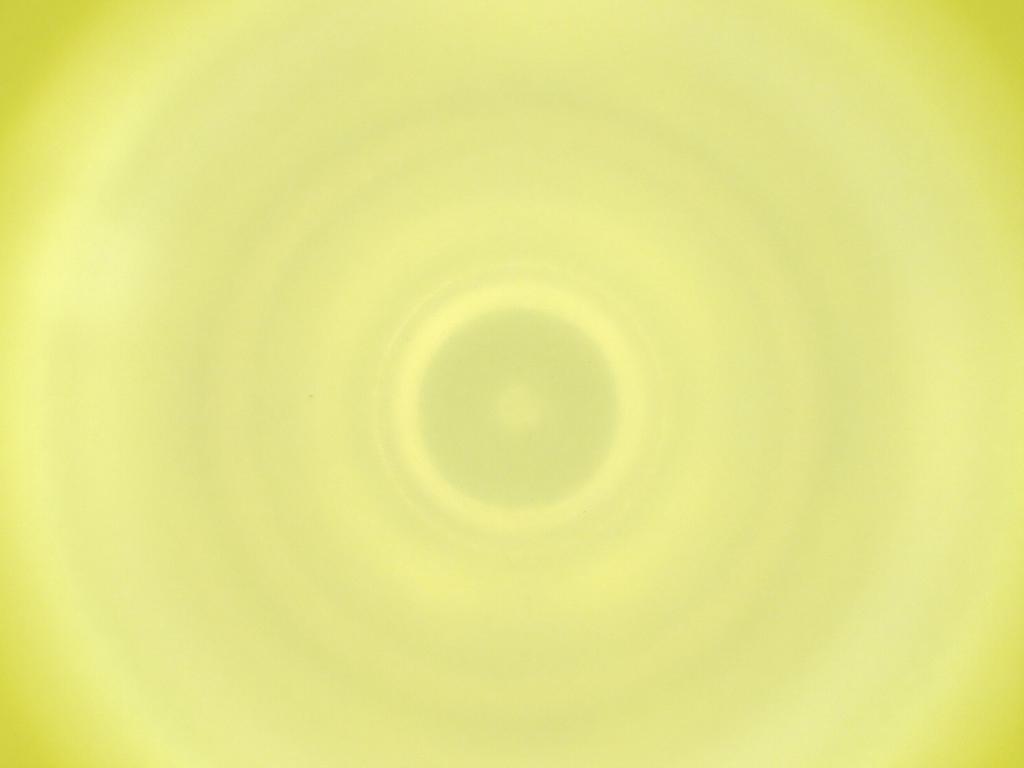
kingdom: Animalia
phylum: Arthropoda
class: Insecta
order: Diptera
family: Cecidomyiidae
